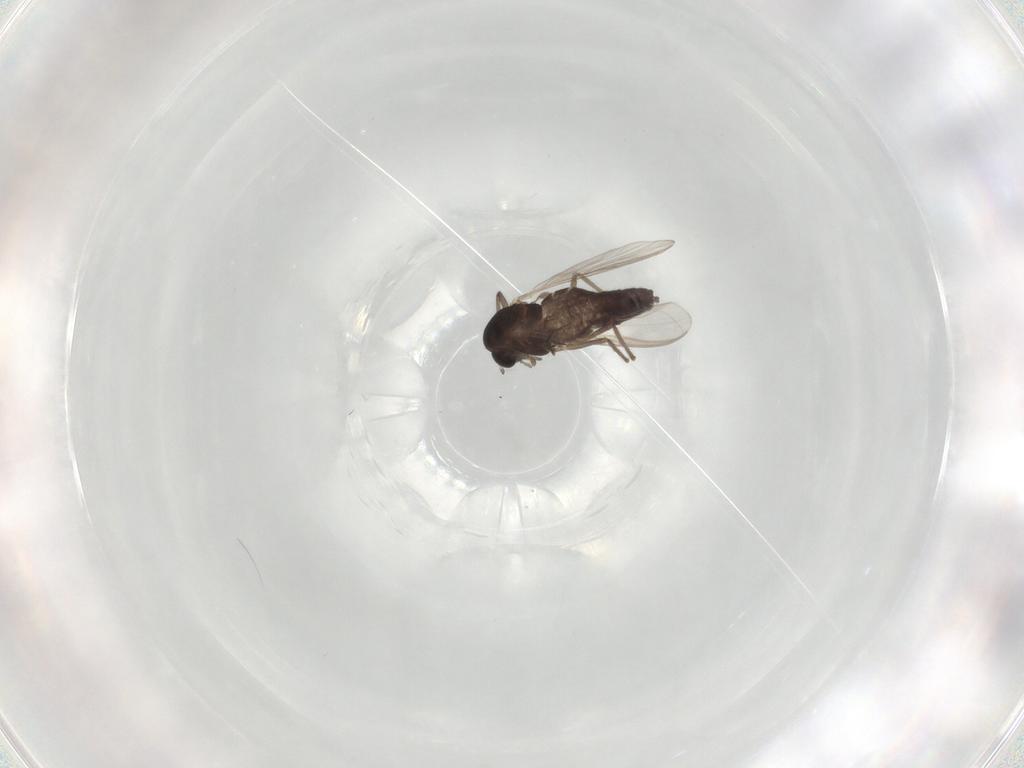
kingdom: Animalia
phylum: Arthropoda
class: Insecta
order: Diptera
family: Chironomidae
